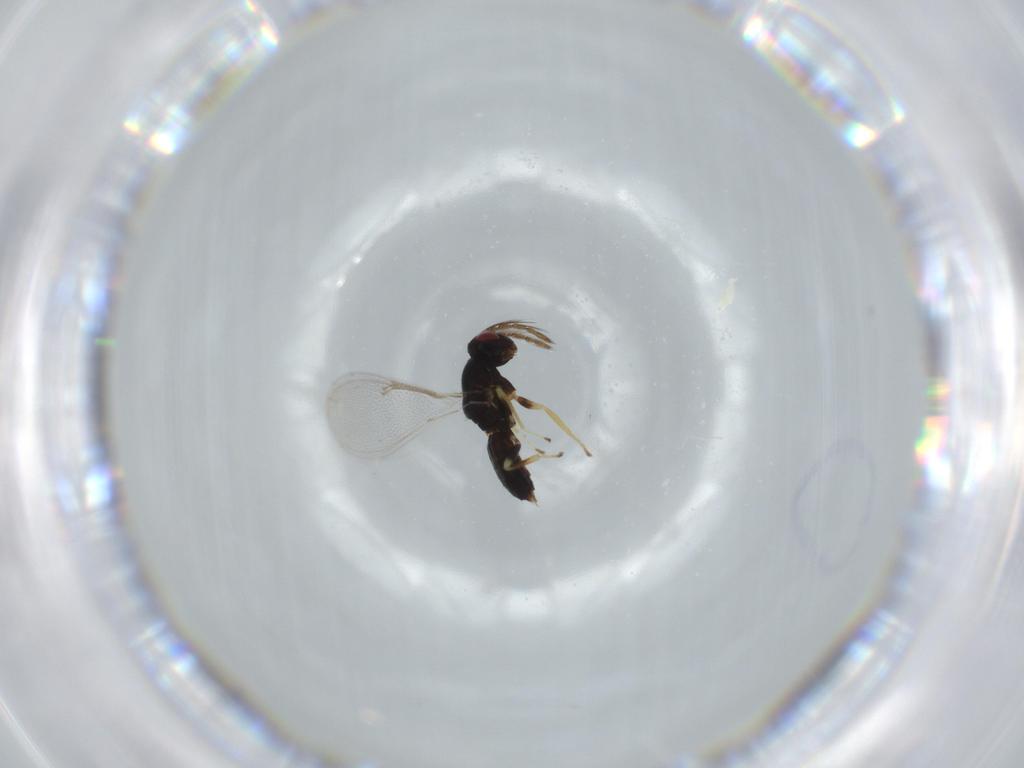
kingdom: Animalia
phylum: Arthropoda
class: Insecta
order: Hymenoptera
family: Eulophidae
